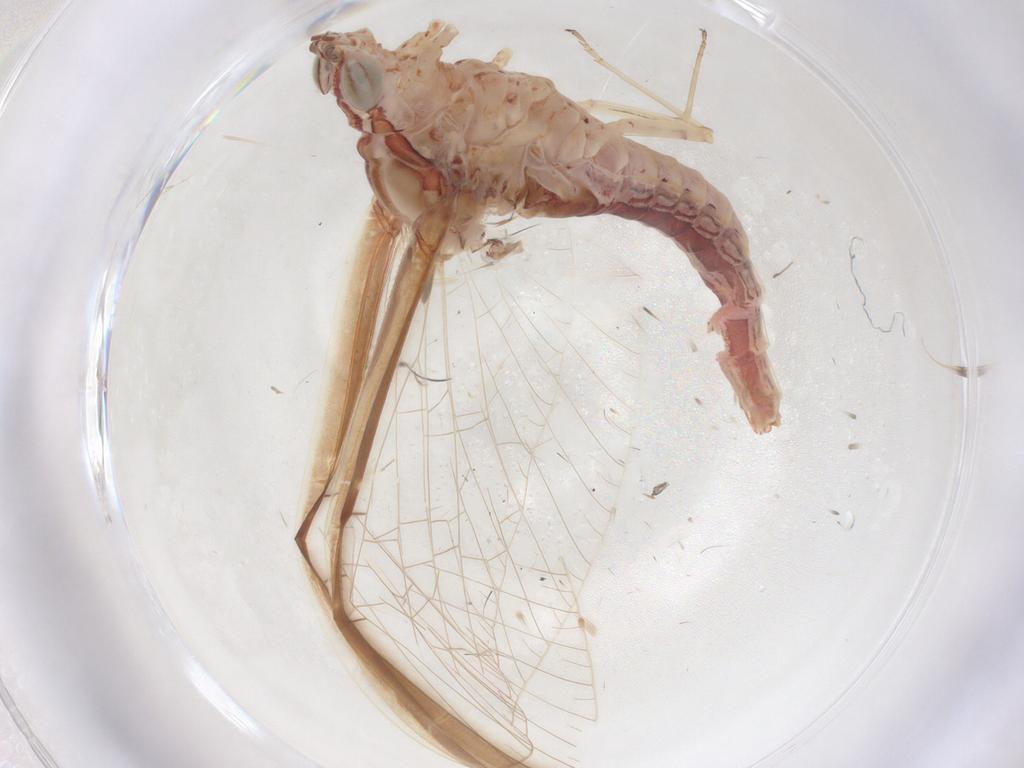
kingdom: Animalia
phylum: Arthropoda
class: Insecta
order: Ephemeroptera
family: Baetidae
